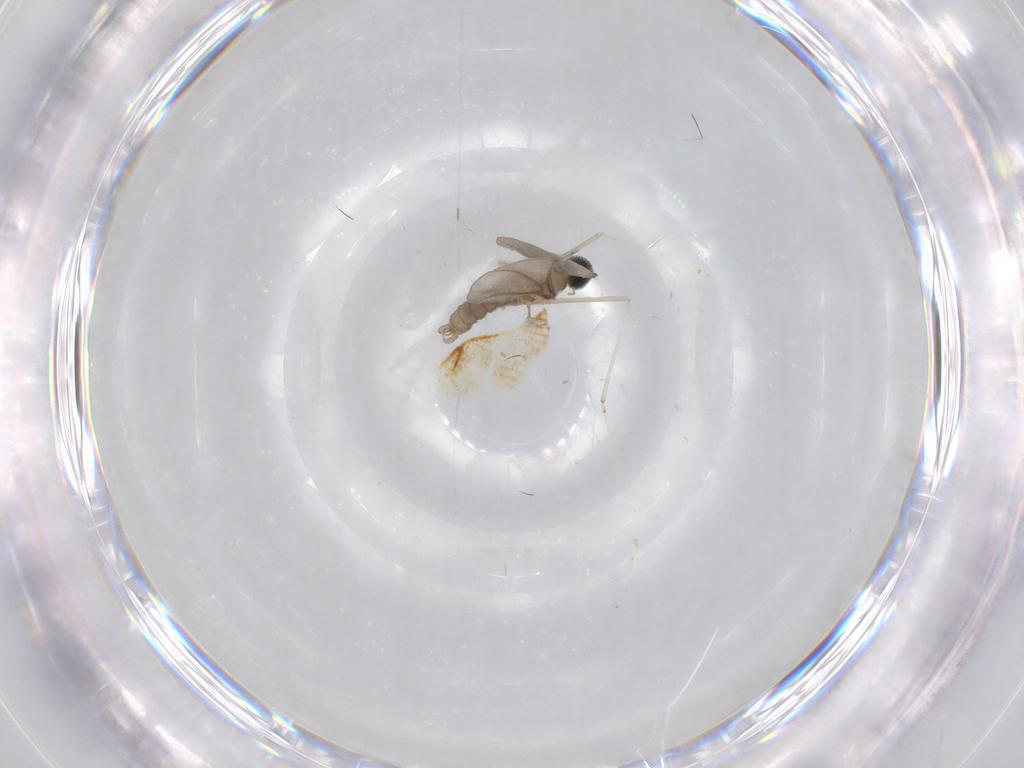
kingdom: Animalia
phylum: Arthropoda
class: Insecta
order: Diptera
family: Cecidomyiidae
